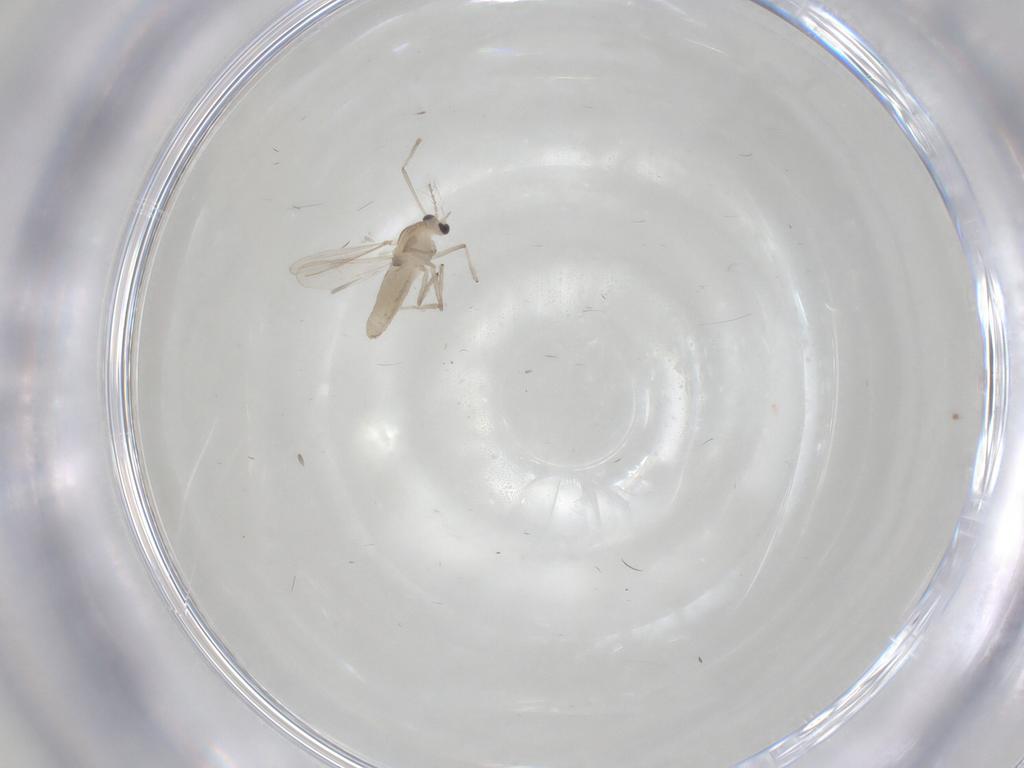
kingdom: Animalia
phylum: Arthropoda
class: Insecta
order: Diptera
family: Chironomidae
